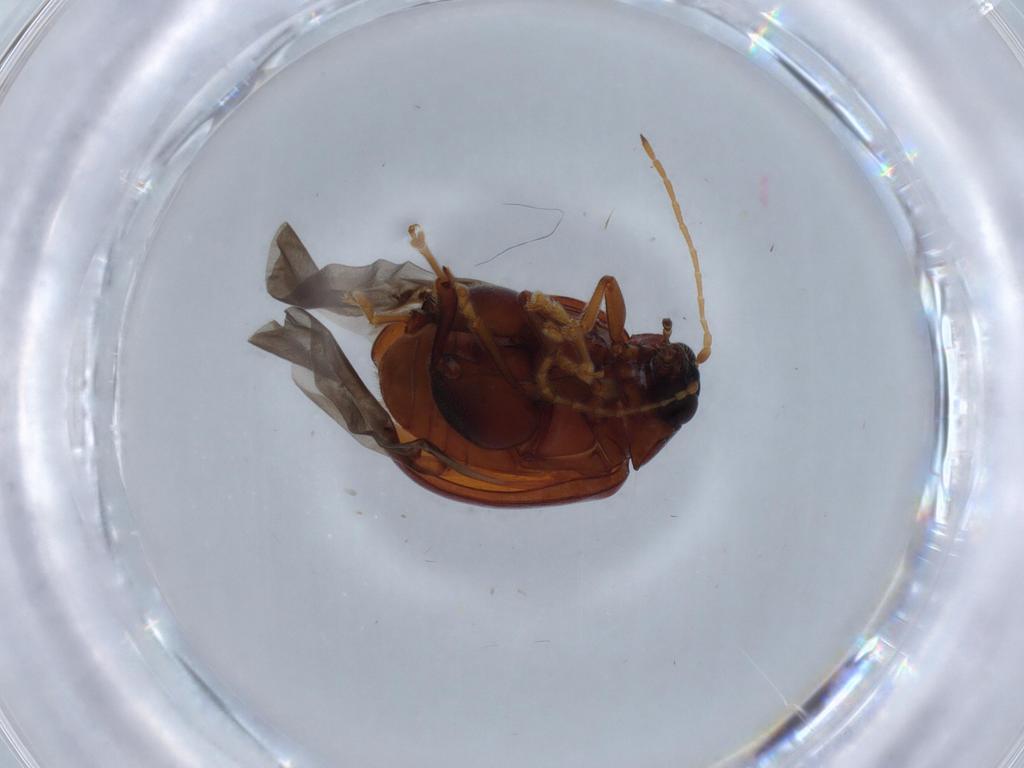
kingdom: Animalia
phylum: Arthropoda
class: Insecta
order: Coleoptera
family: Chrysomelidae
